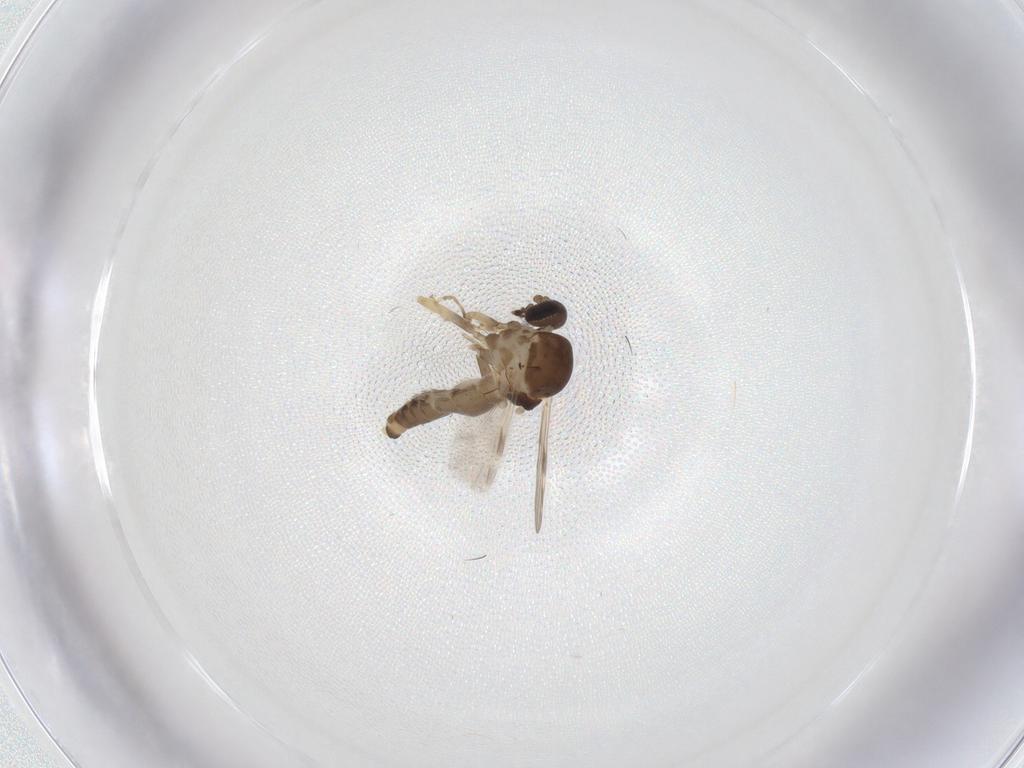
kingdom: Animalia
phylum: Arthropoda
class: Insecta
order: Diptera
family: Ceratopogonidae
